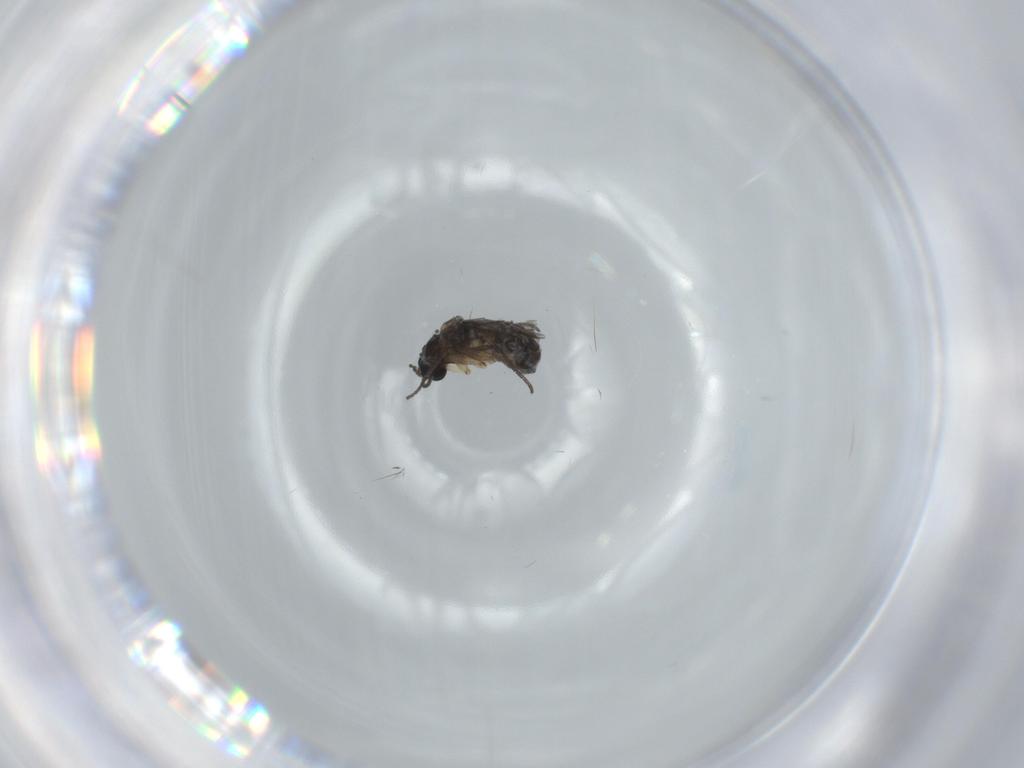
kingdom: Animalia
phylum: Arthropoda
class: Insecta
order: Diptera
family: Sciaridae
